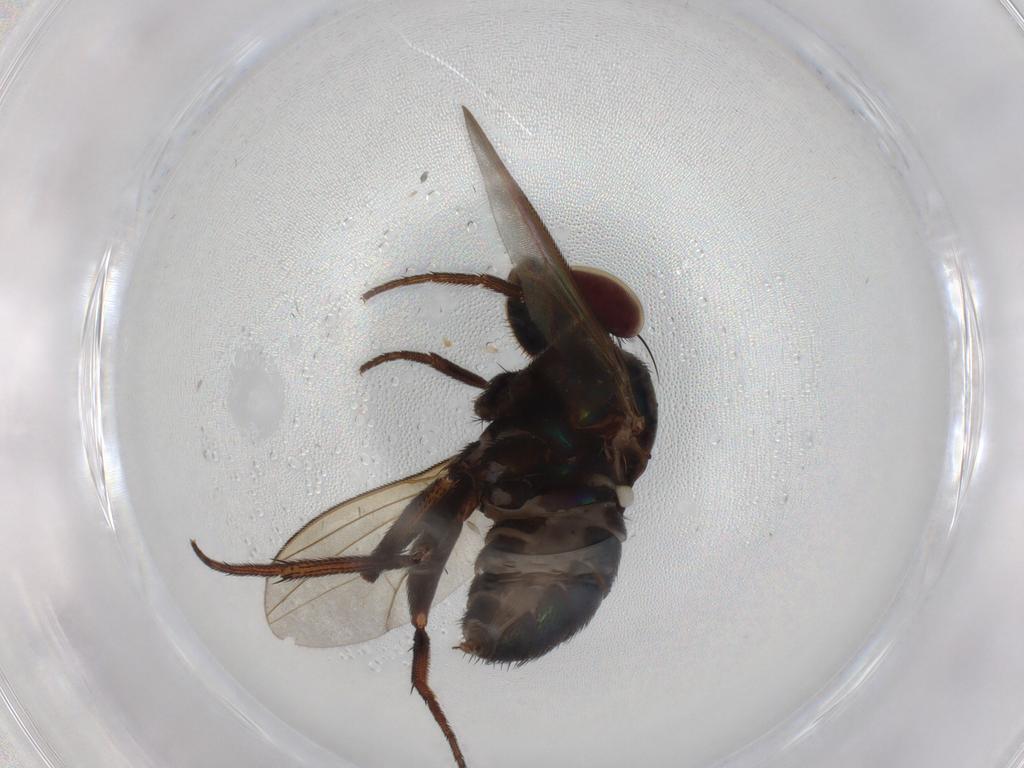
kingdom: Animalia
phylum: Arthropoda
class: Insecta
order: Diptera
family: Dolichopodidae
